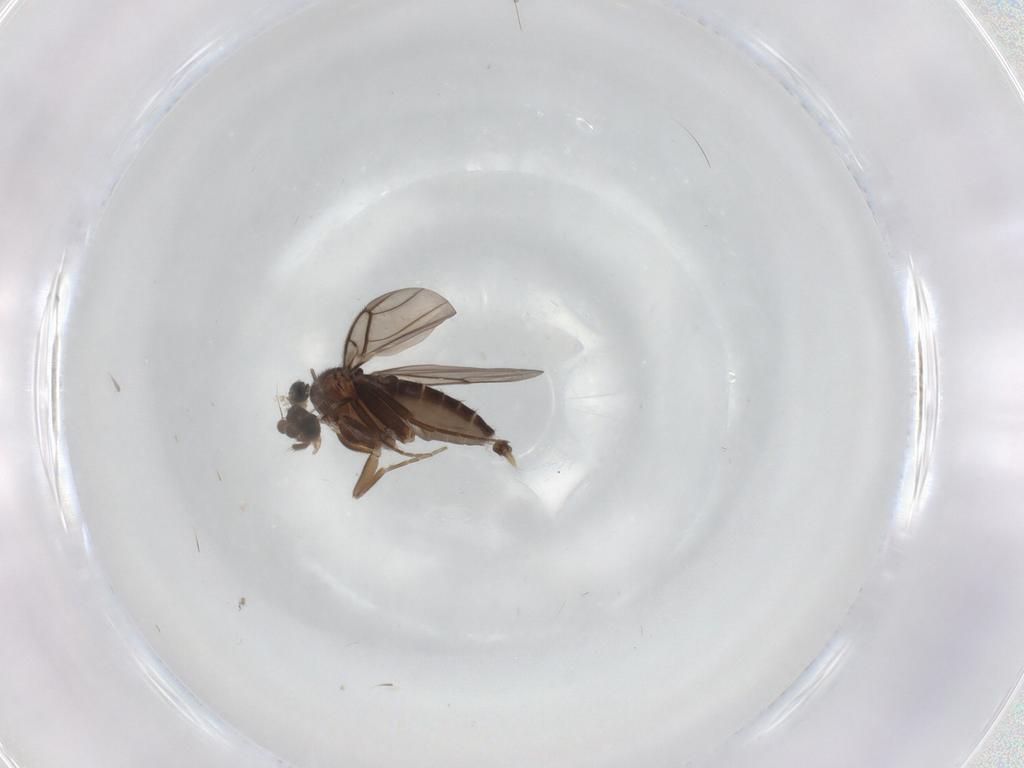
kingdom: Animalia
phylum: Arthropoda
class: Insecta
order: Diptera
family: Phoridae
